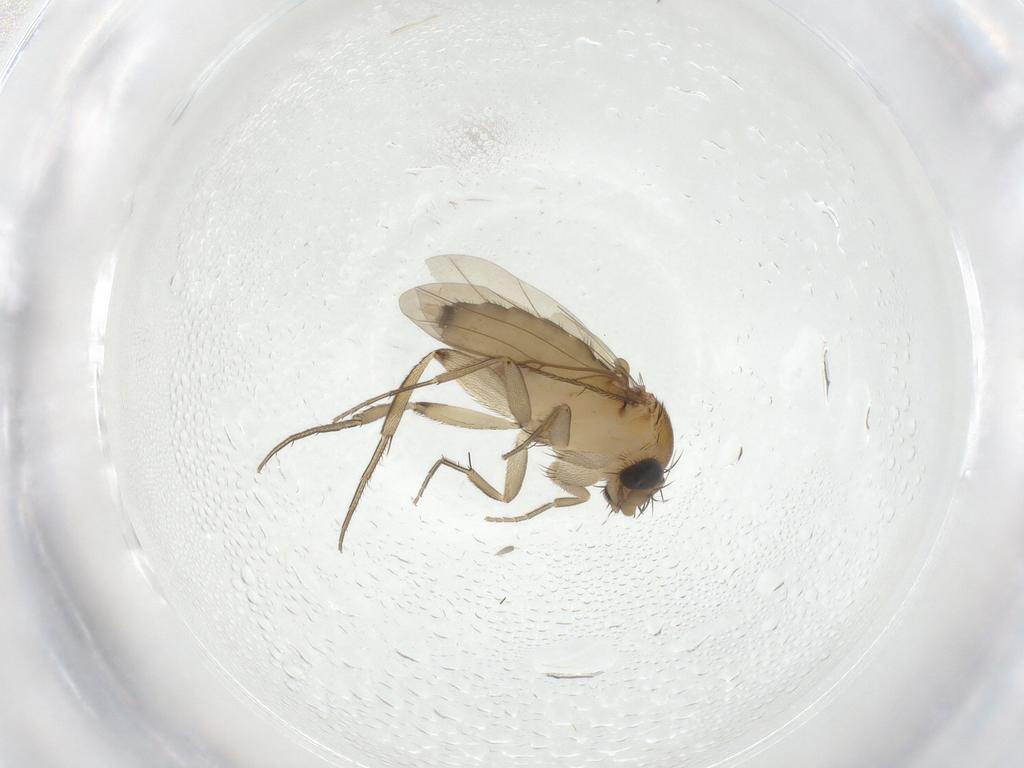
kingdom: Animalia
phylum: Arthropoda
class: Insecta
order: Diptera
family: Phoridae
